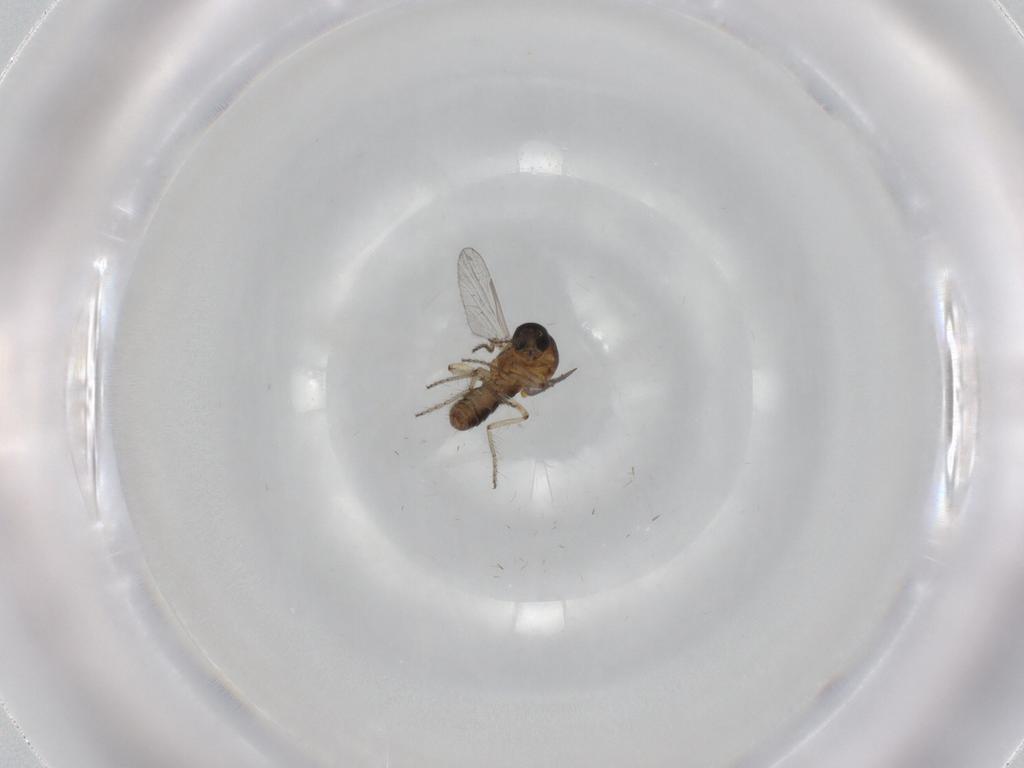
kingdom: Animalia
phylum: Arthropoda
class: Insecta
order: Diptera
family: Ceratopogonidae
